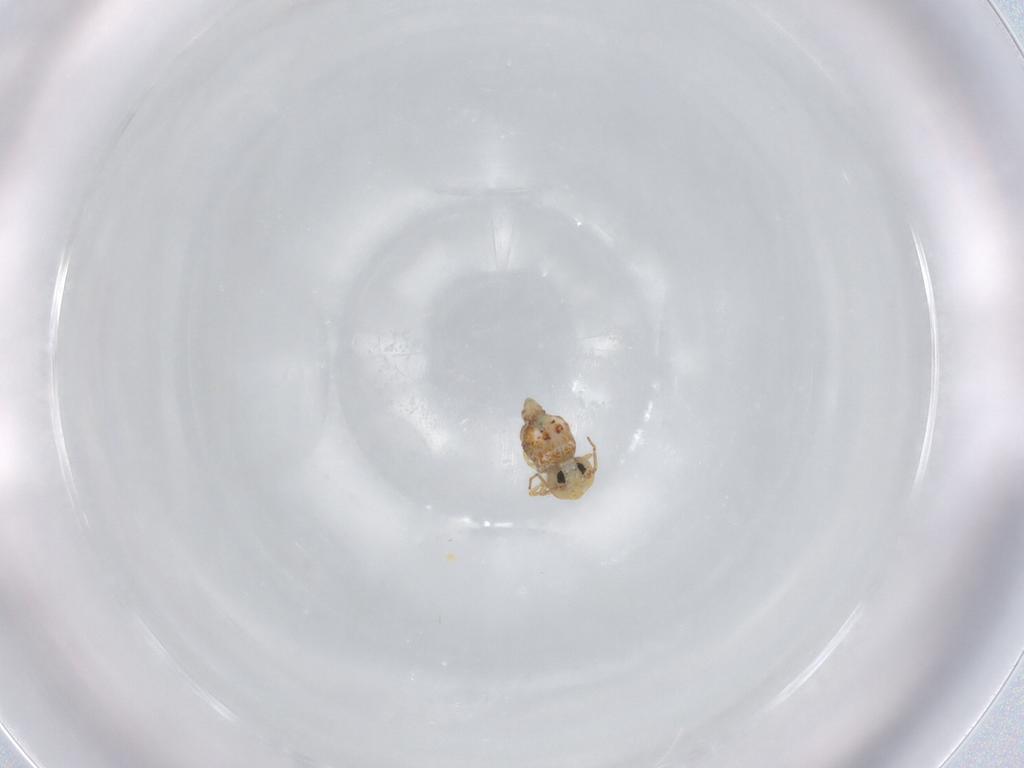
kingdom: Animalia
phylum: Arthropoda
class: Collembola
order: Symphypleona
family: Bourletiellidae
